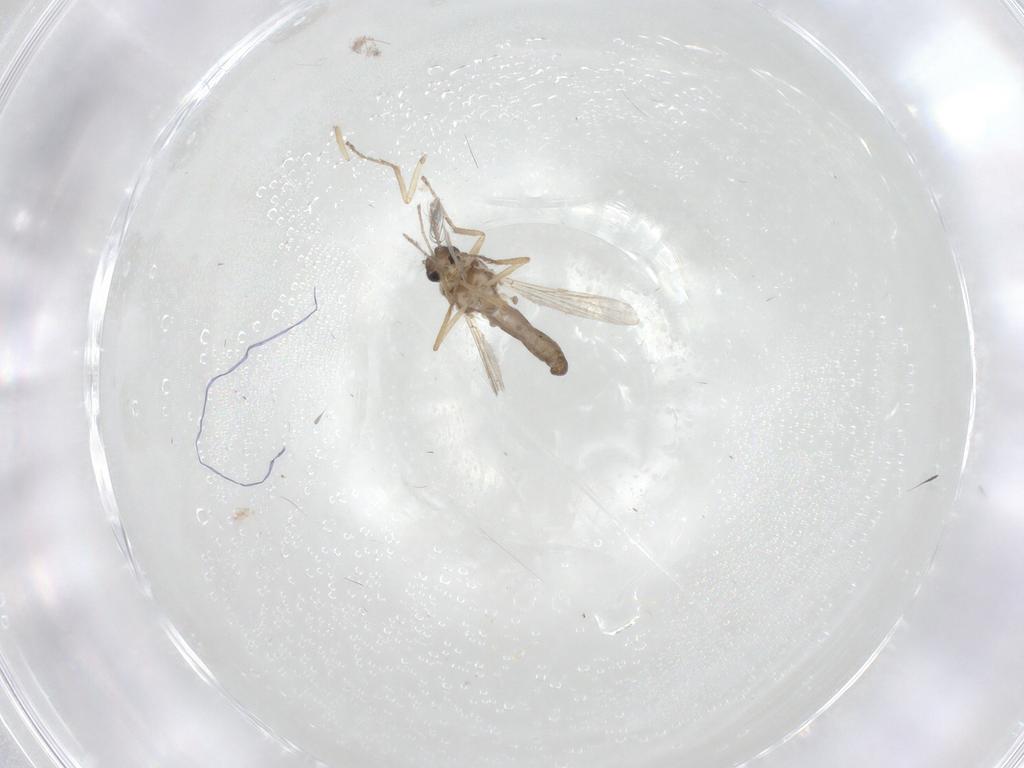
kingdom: Animalia
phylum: Arthropoda
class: Insecta
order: Diptera
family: Ceratopogonidae
